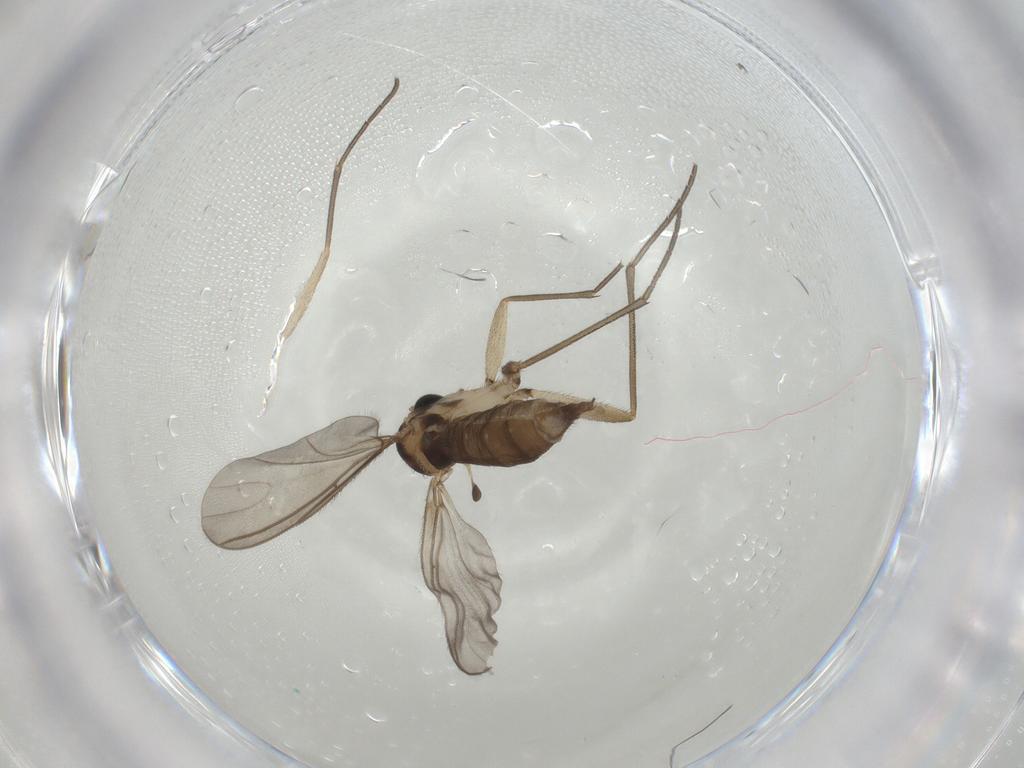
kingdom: Animalia
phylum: Arthropoda
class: Insecta
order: Diptera
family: Sciaridae
